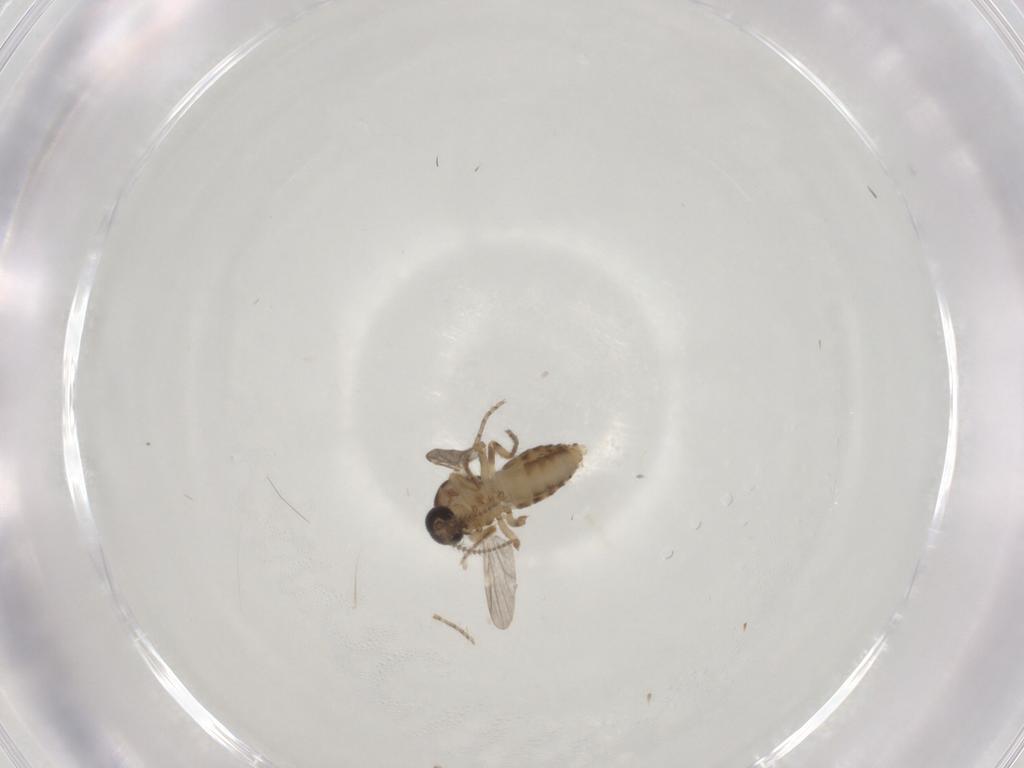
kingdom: Animalia
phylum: Arthropoda
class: Insecta
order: Diptera
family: Ceratopogonidae
